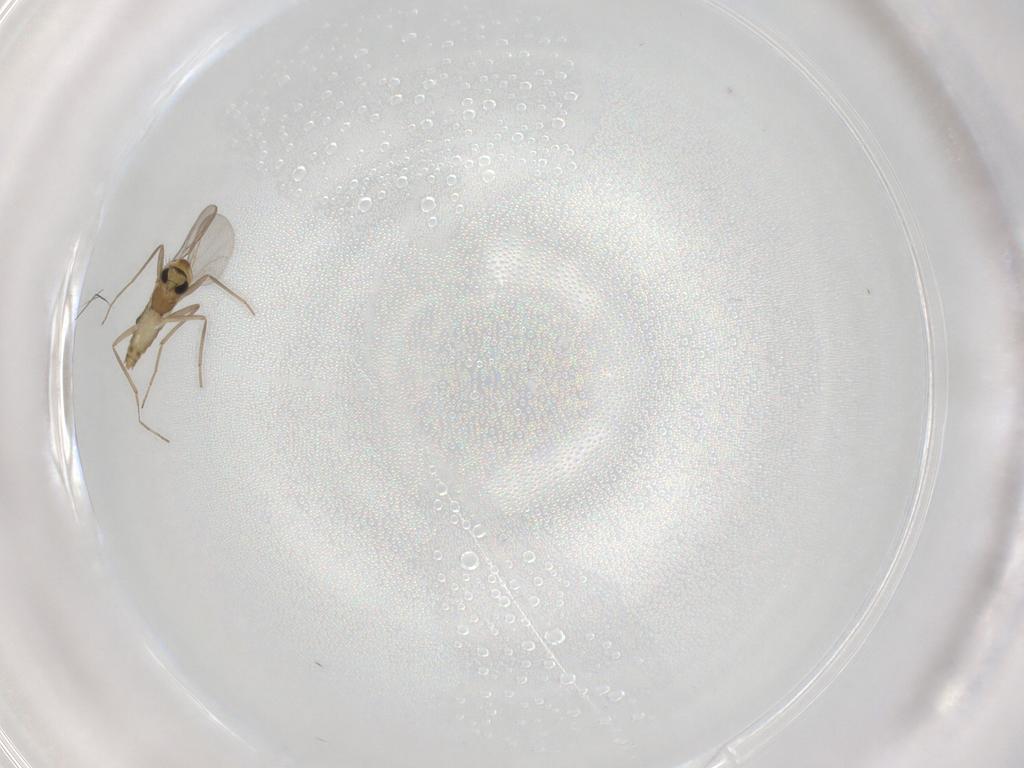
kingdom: Animalia
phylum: Arthropoda
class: Insecta
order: Diptera
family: Chironomidae
